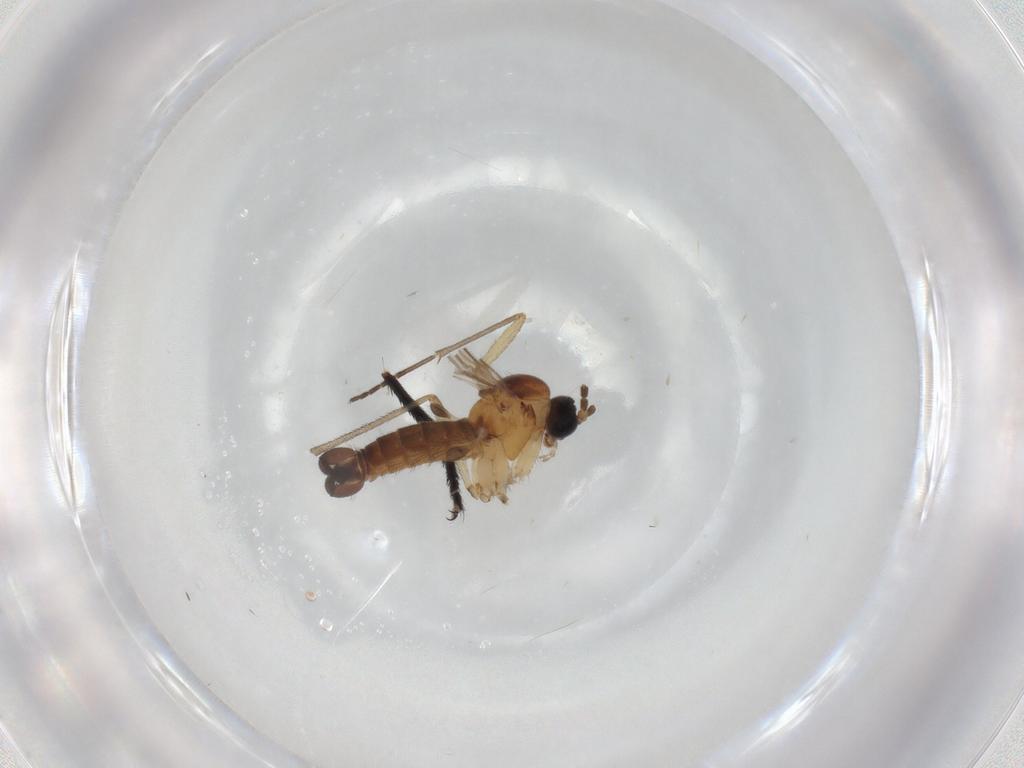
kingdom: Animalia
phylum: Arthropoda
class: Insecta
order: Diptera
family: Sciaridae
